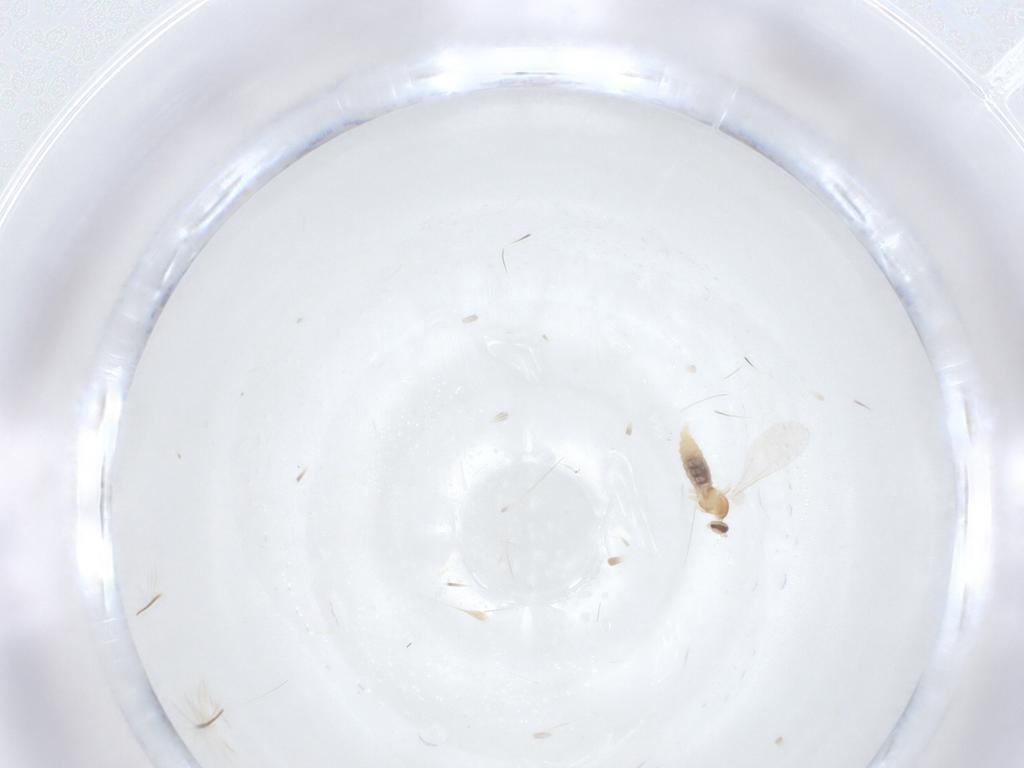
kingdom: Animalia
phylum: Arthropoda
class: Insecta
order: Diptera
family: Cecidomyiidae
